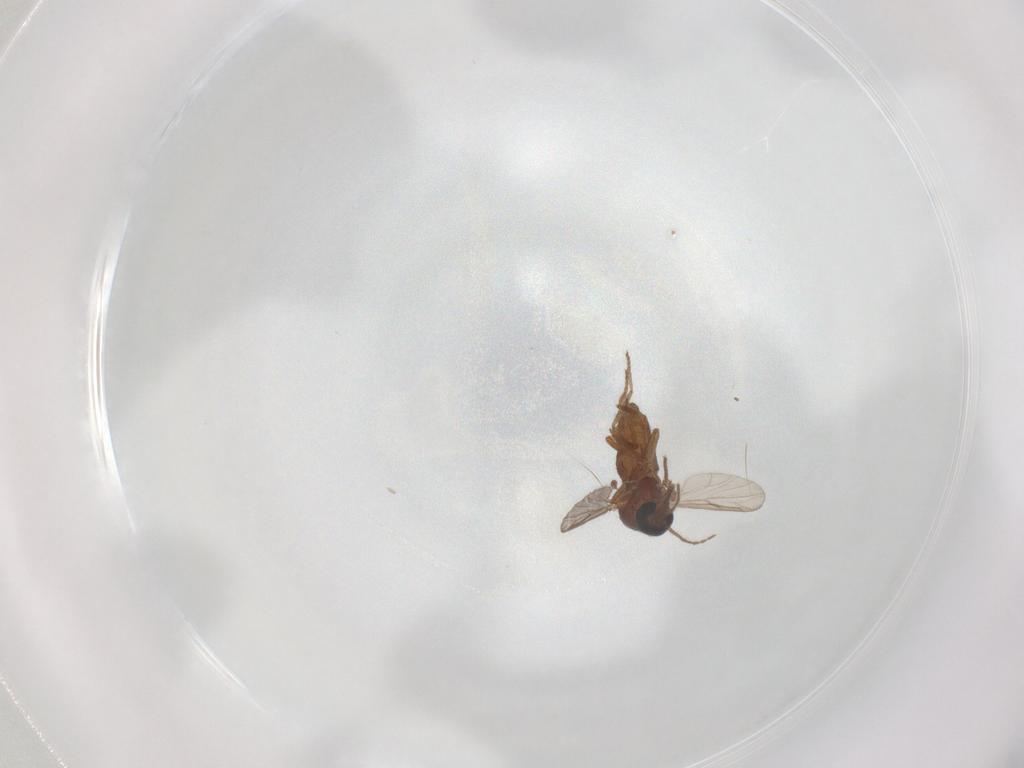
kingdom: Animalia
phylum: Arthropoda
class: Insecta
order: Diptera
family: Ceratopogonidae
